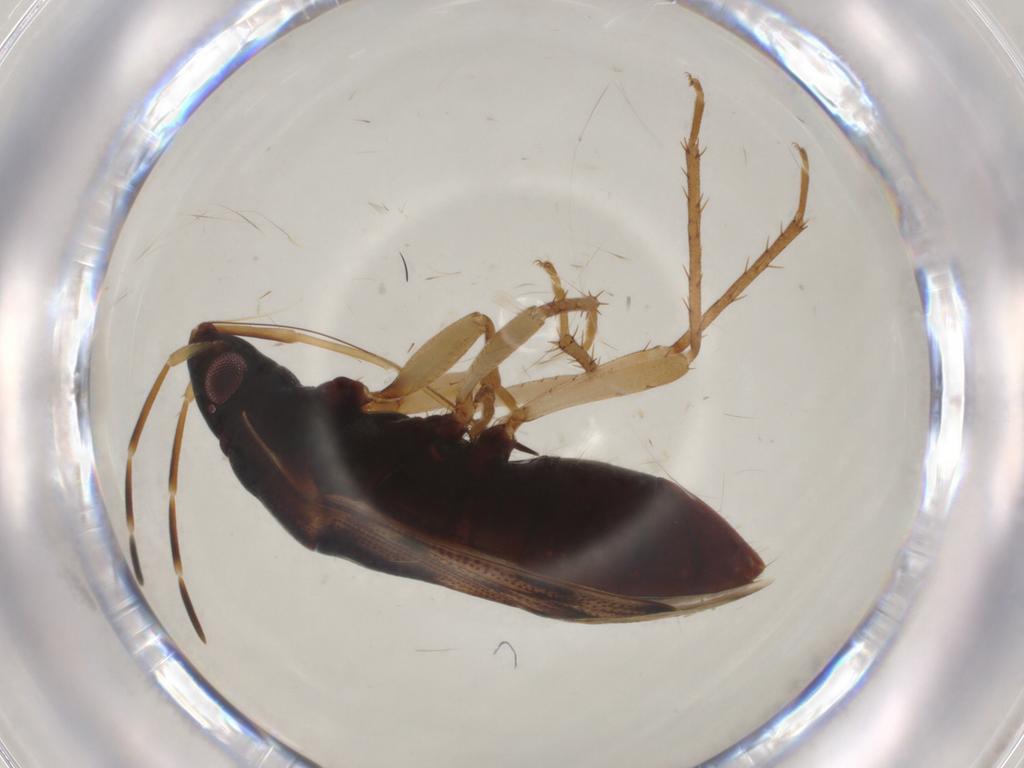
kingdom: Animalia
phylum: Arthropoda
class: Insecta
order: Hemiptera
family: Rhyparochromidae
